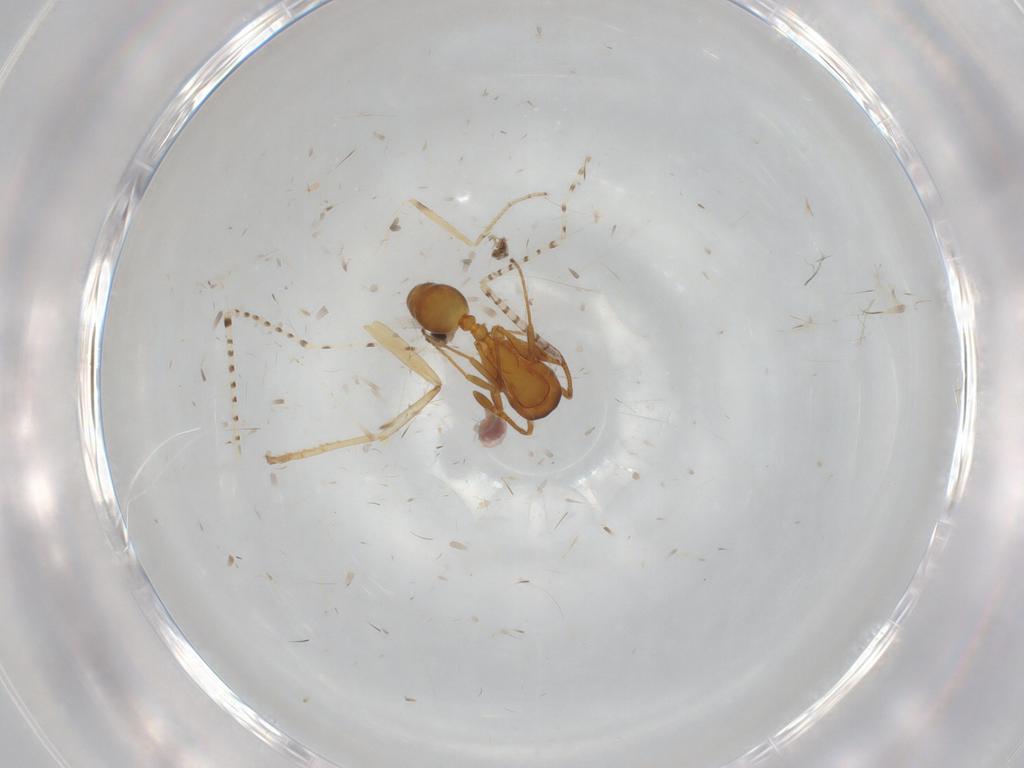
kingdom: Animalia
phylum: Arthropoda
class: Insecta
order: Hymenoptera
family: Formicidae
